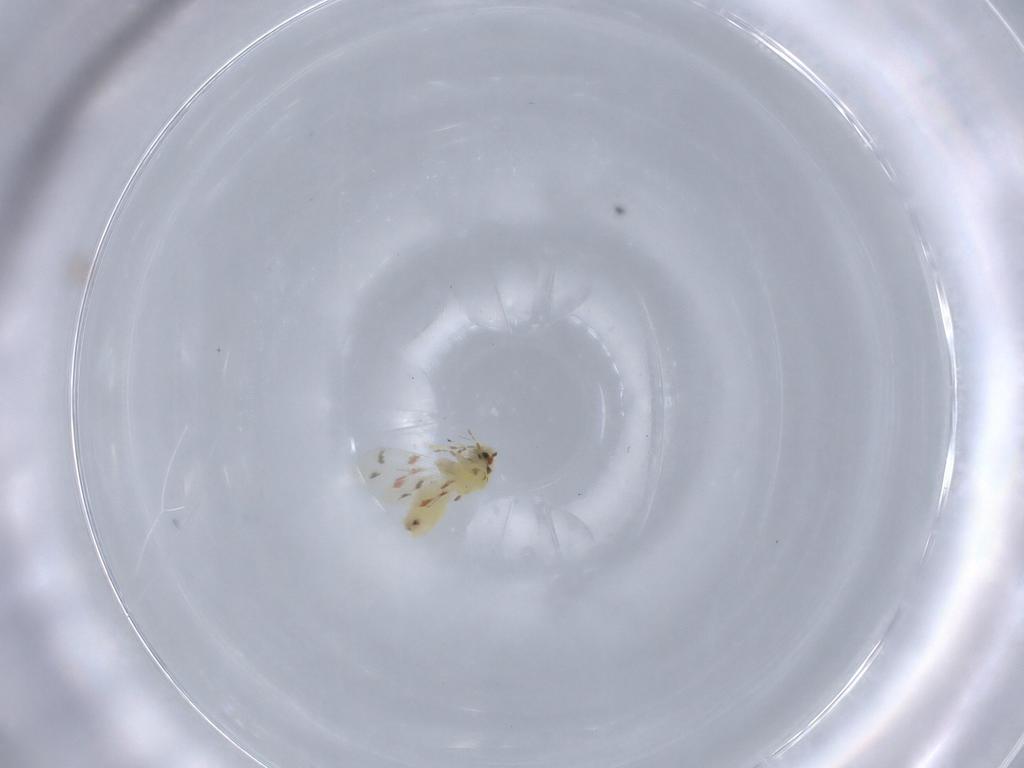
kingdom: Animalia
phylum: Arthropoda
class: Insecta
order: Hemiptera
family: Aleyrodidae
